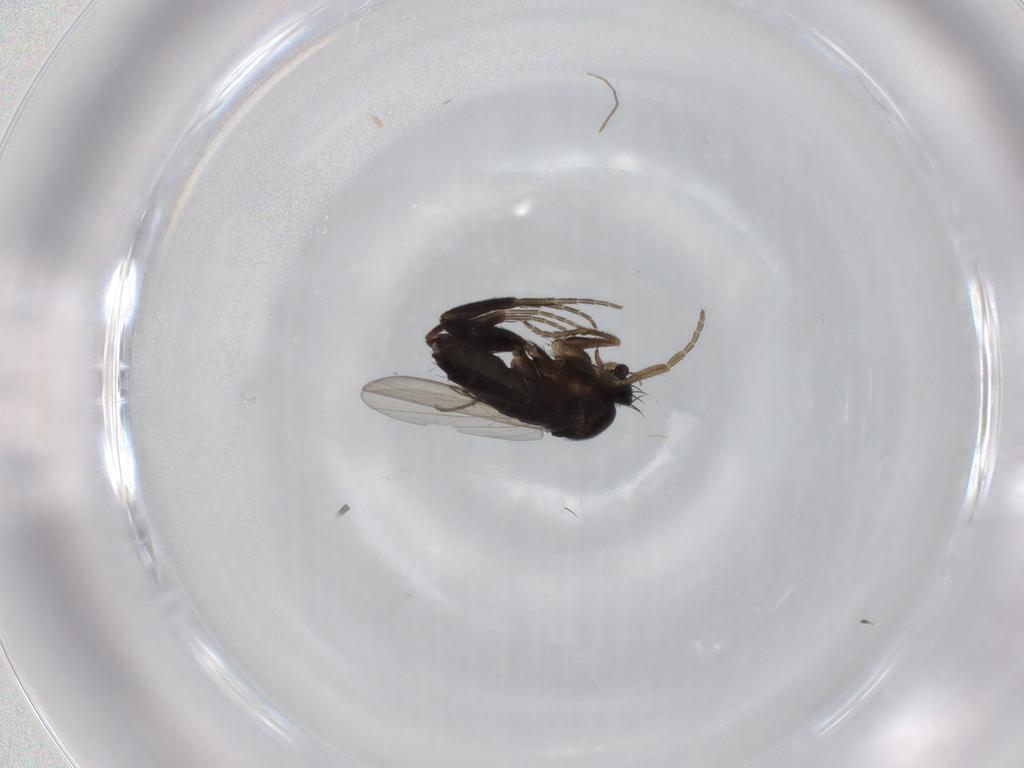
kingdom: Animalia
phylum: Arthropoda
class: Insecta
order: Diptera
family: Phoridae
